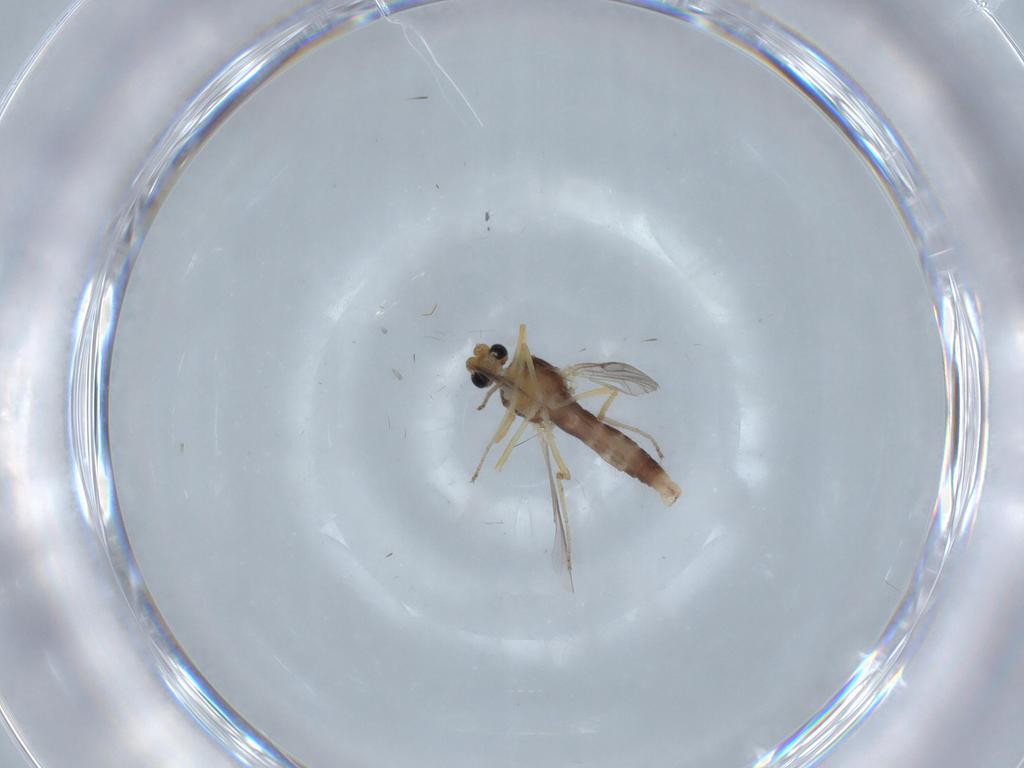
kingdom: Animalia
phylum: Arthropoda
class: Insecta
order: Diptera
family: Ceratopogonidae
